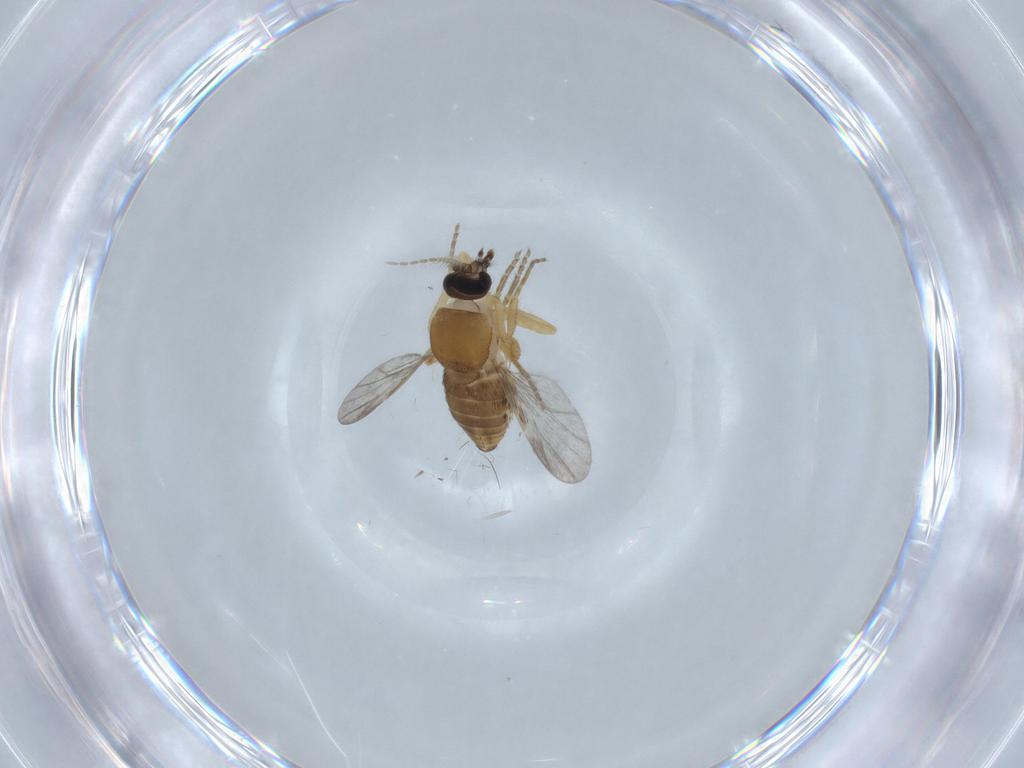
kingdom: Animalia
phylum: Arthropoda
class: Insecta
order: Diptera
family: Ceratopogonidae
